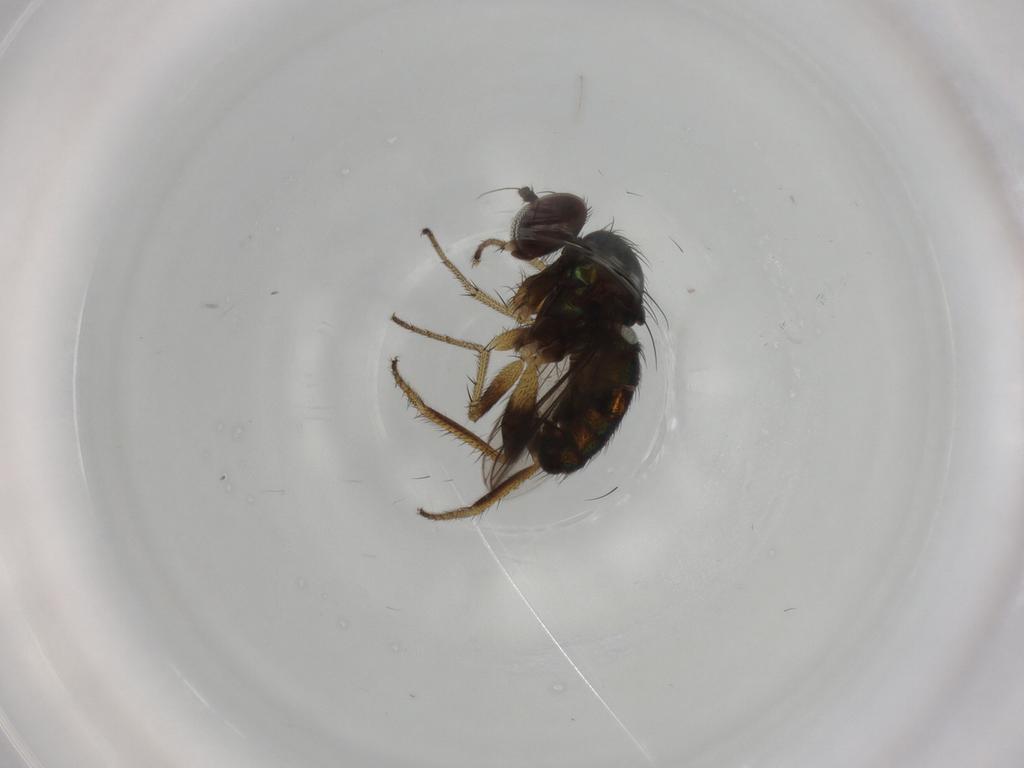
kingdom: Animalia
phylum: Arthropoda
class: Insecta
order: Diptera
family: Dolichopodidae
